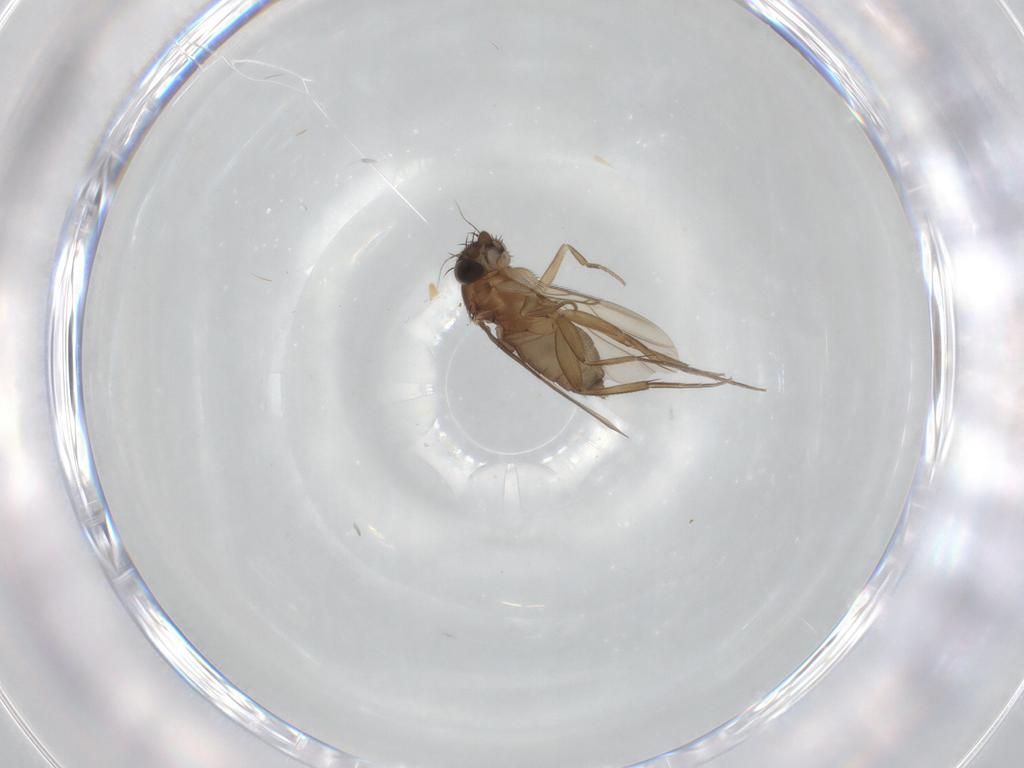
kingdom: Animalia
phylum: Arthropoda
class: Insecta
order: Diptera
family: Phoridae
